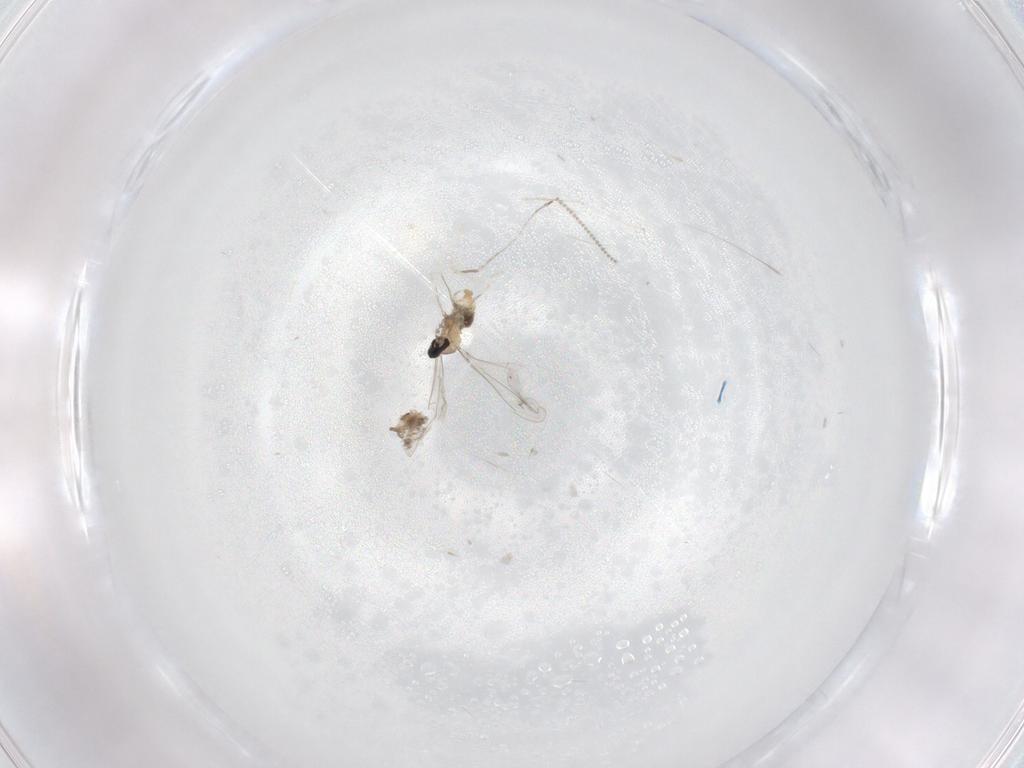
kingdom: Animalia
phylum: Arthropoda
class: Insecta
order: Diptera
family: Cecidomyiidae
